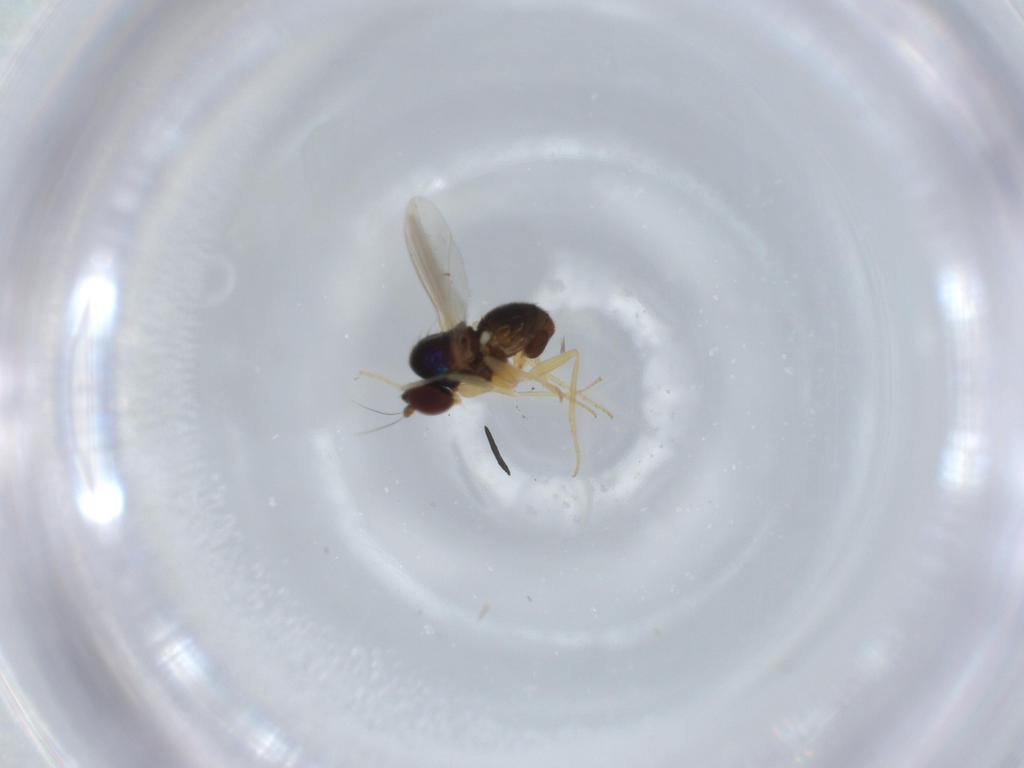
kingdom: Animalia
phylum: Arthropoda
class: Insecta
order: Diptera
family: Dolichopodidae
